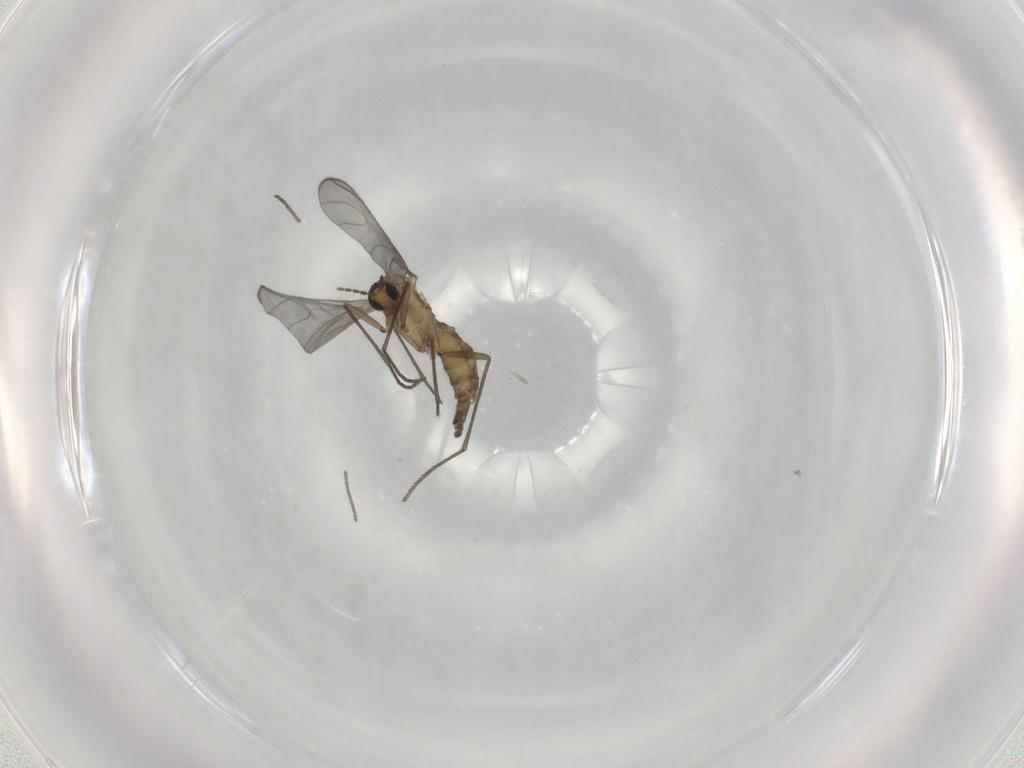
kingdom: Animalia
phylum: Arthropoda
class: Insecta
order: Diptera
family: Sciaridae
